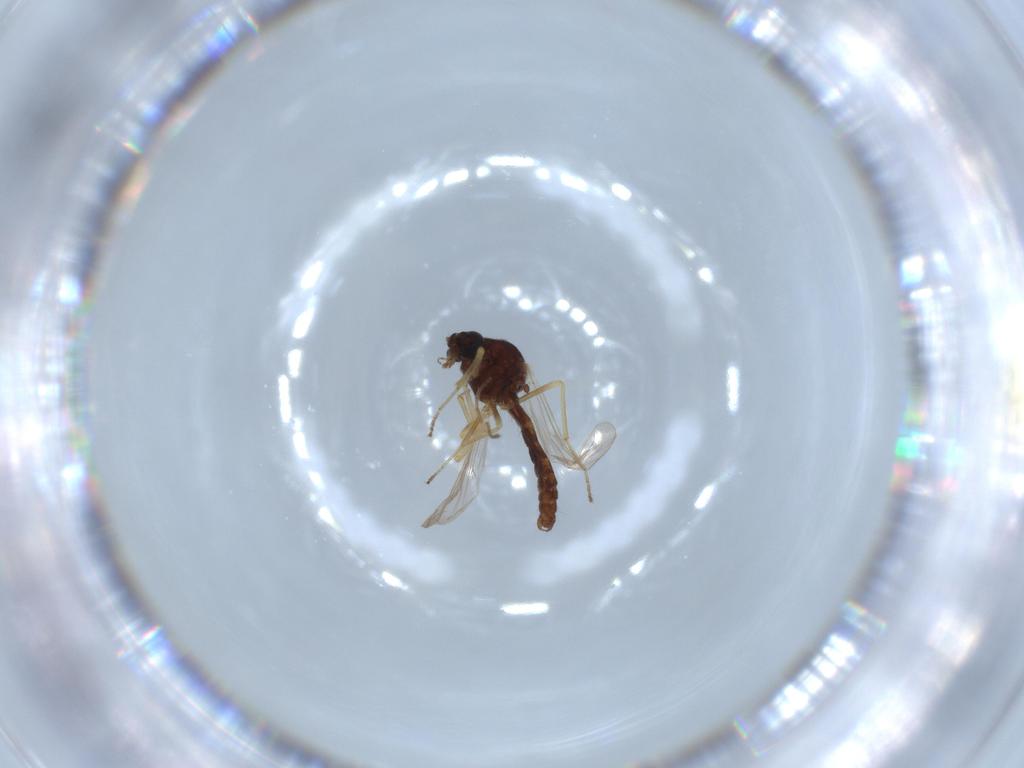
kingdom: Animalia
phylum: Arthropoda
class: Insecta
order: Diptera
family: Ceratopogonidae
